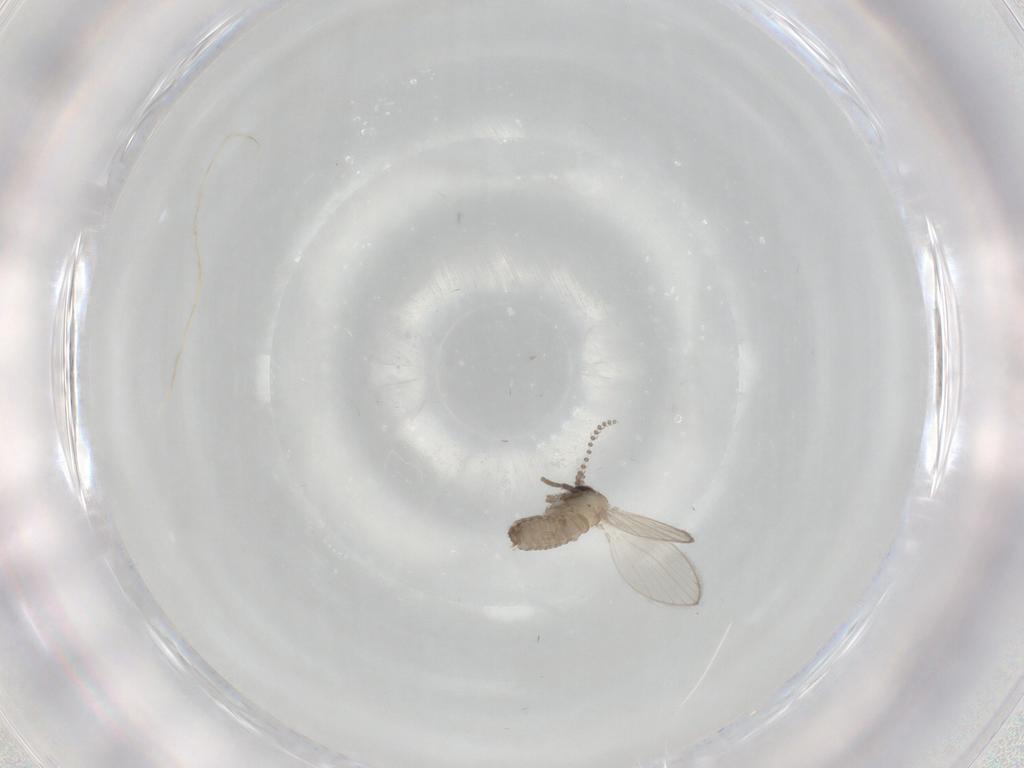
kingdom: Animalia
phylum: Arthropoda
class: Insecta
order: Diptera
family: Psychodidae
